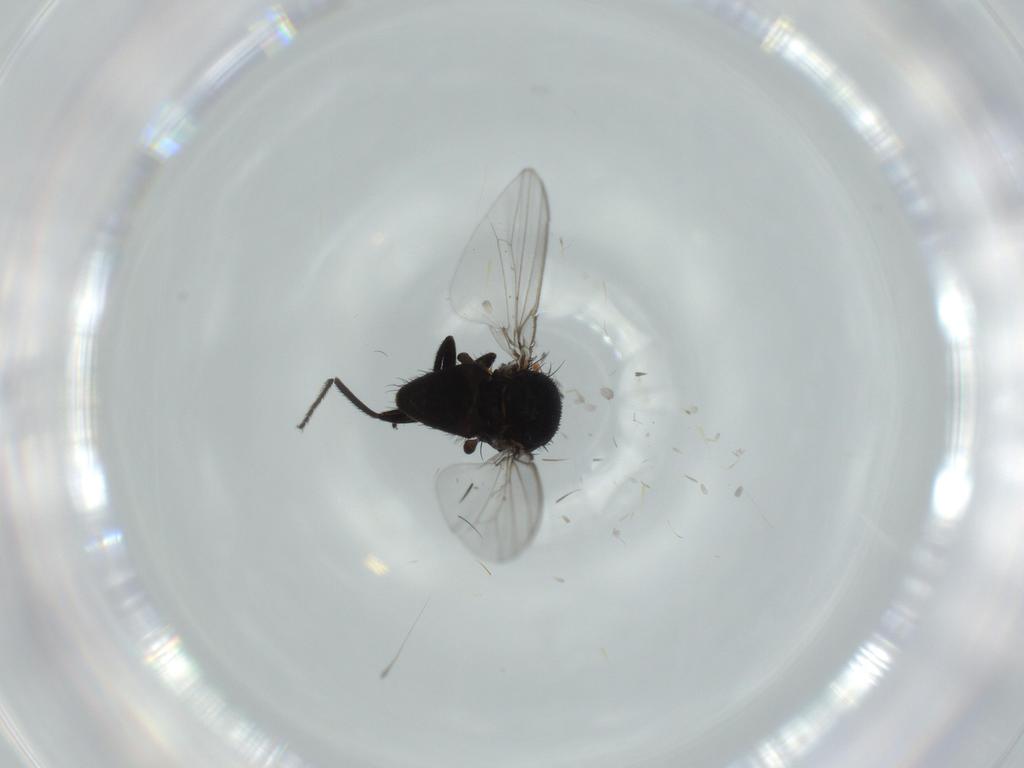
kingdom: Animalia
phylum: Arthropoda
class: Insecta
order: Diptera
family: Milichiidae
